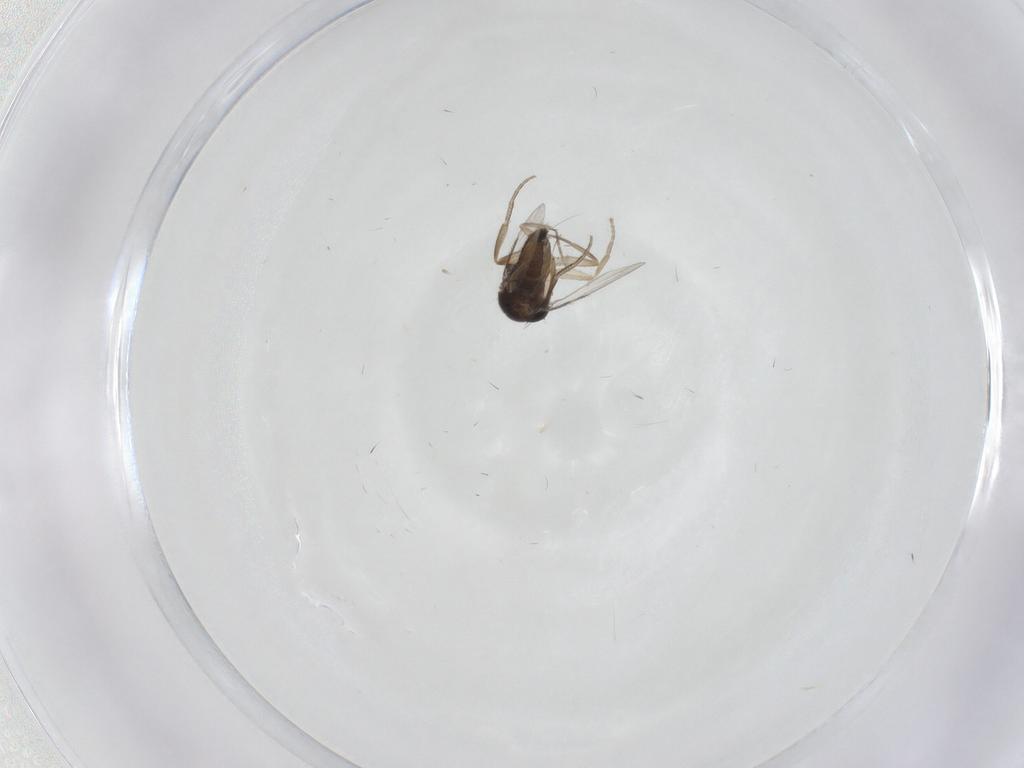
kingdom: Animalia
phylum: Arthropoda
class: Insecta
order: Diptera
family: Phoridae
